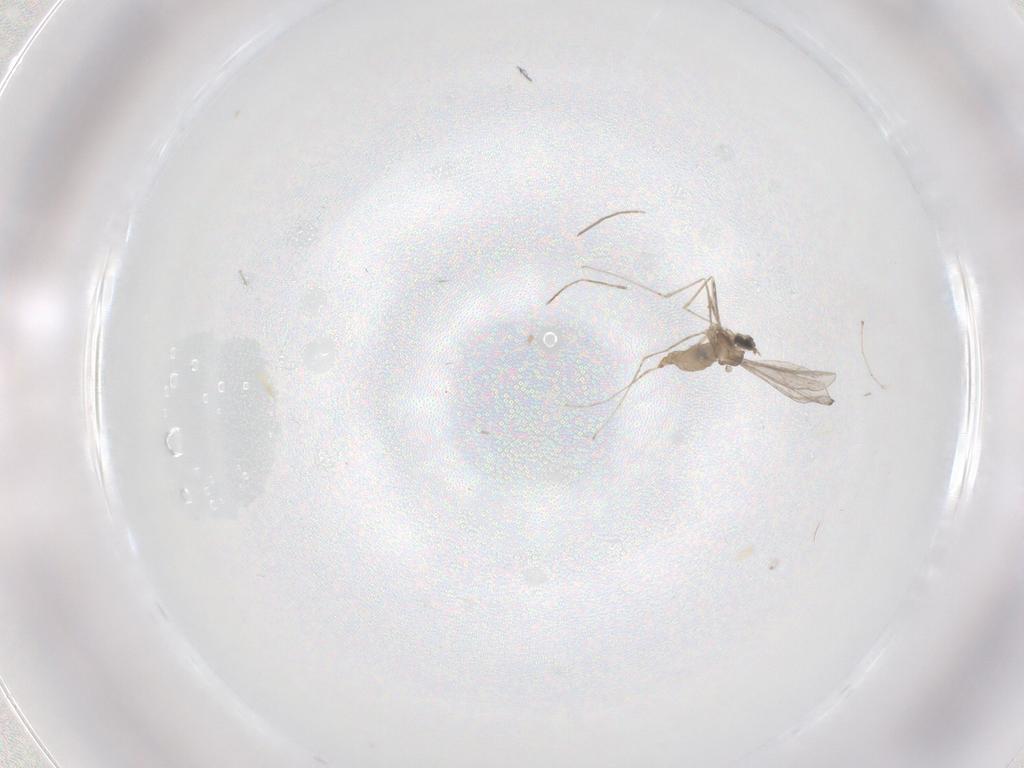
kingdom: Animalia
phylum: Arthropoda
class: Insecta
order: Diptera
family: Cecidomyiidae
